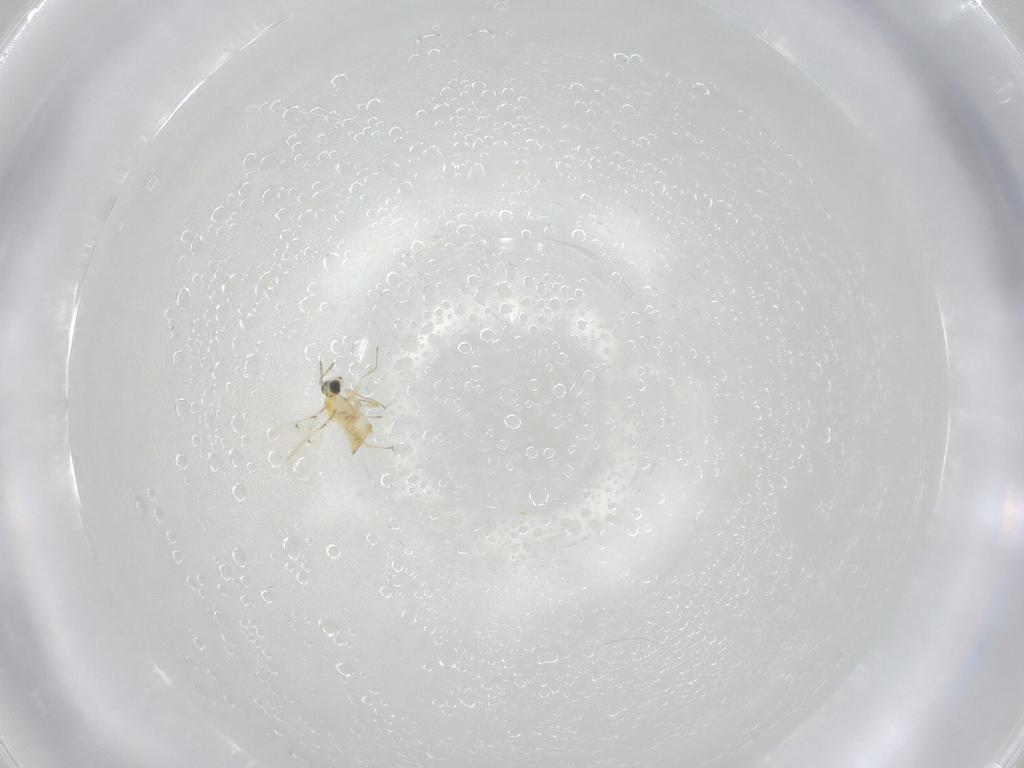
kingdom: Animalia
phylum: Arthropoda
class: Insecta
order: Hymenoptera
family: Trichogrammatidae
